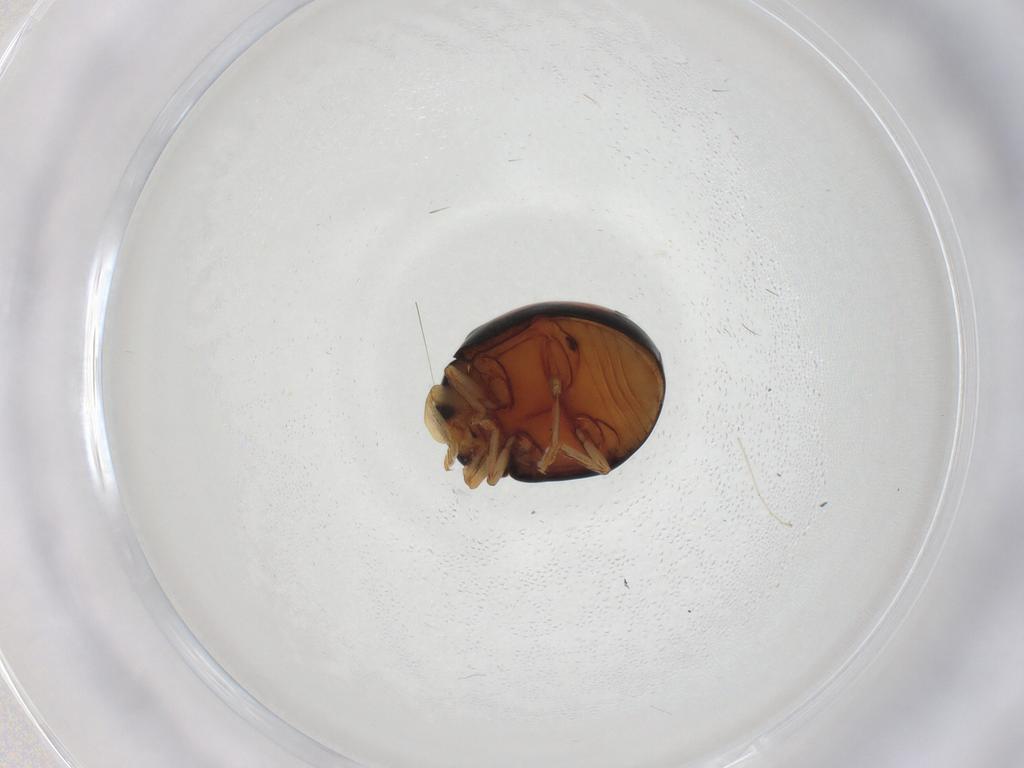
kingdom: Animalia
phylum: Arthropoda
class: Insecta
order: Coleoptera
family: Coccinellidae
